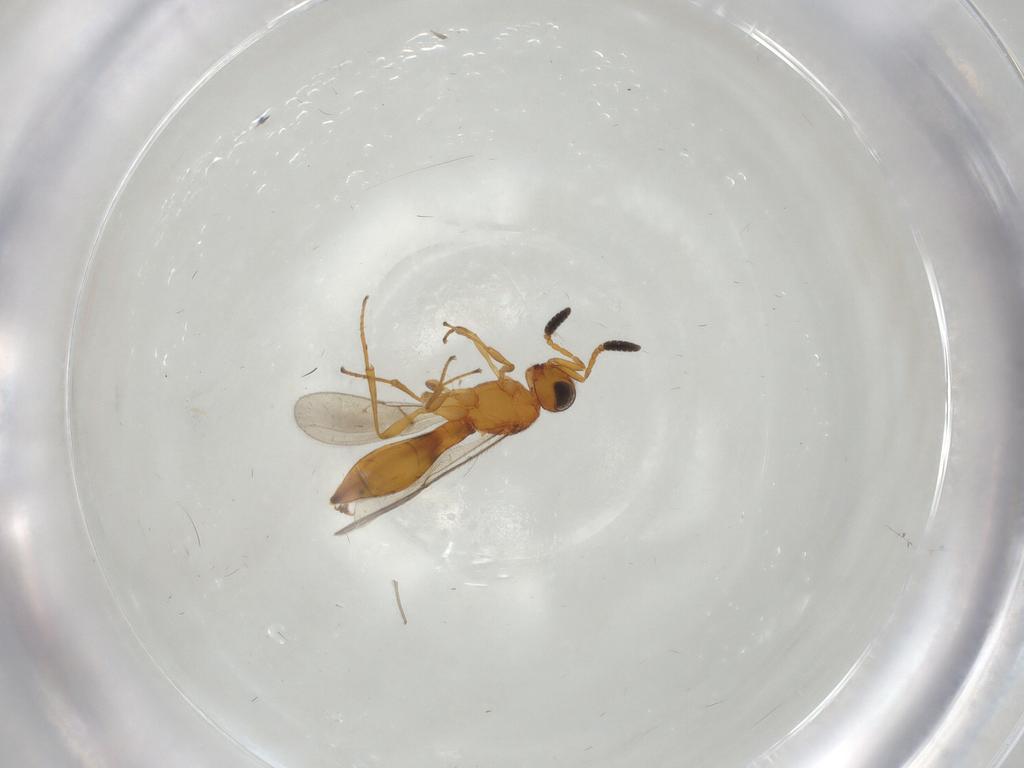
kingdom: Animalia
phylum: Arthropoda
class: Insecta
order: Hymenoptera
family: Scelionidae
